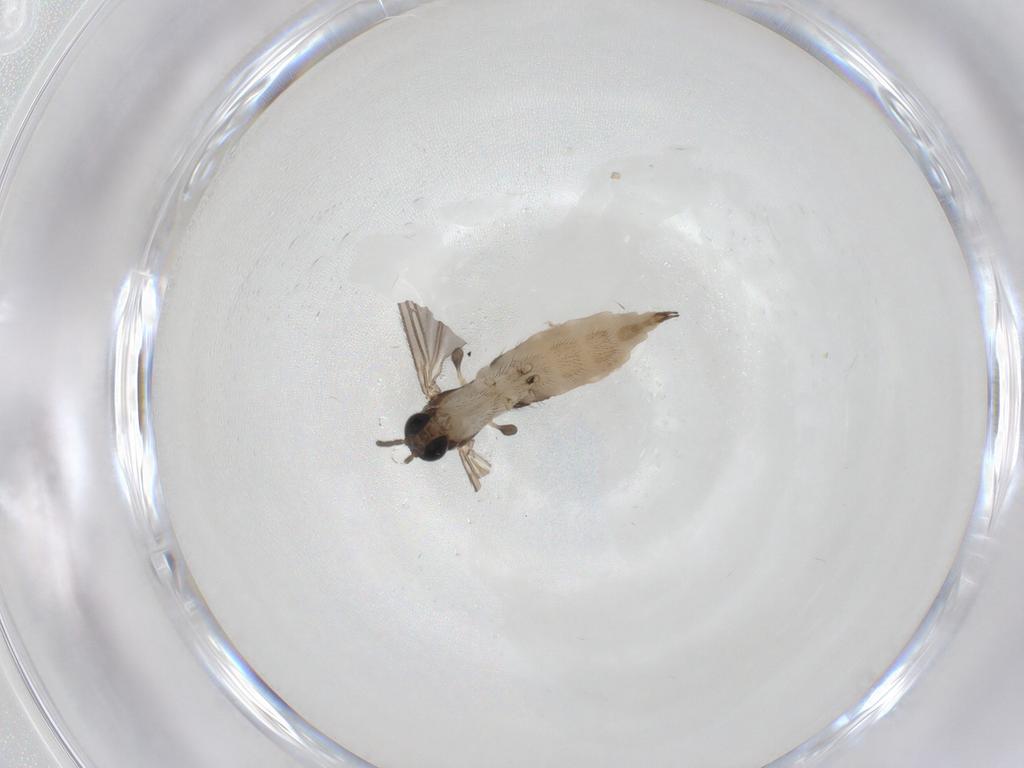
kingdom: Animalia
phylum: Arthropoda
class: Insecta
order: Diptera
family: Sciaridae
